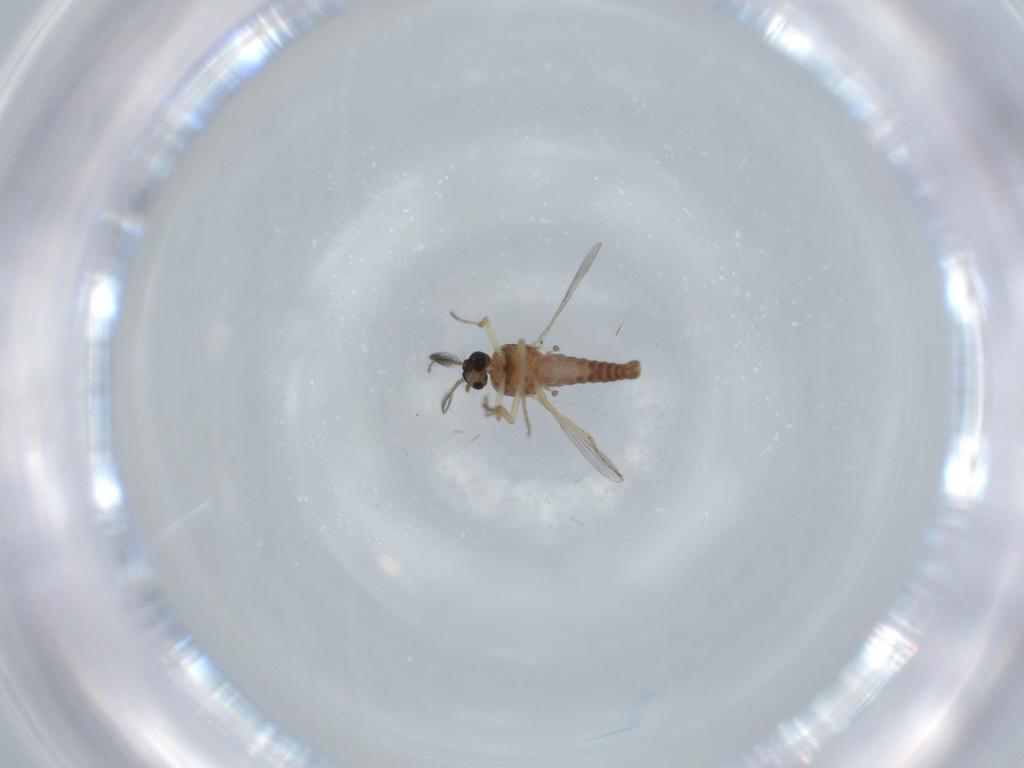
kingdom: Animalia
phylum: Arthropoda
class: Insecta
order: Diptera
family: Ceratopogonidae
